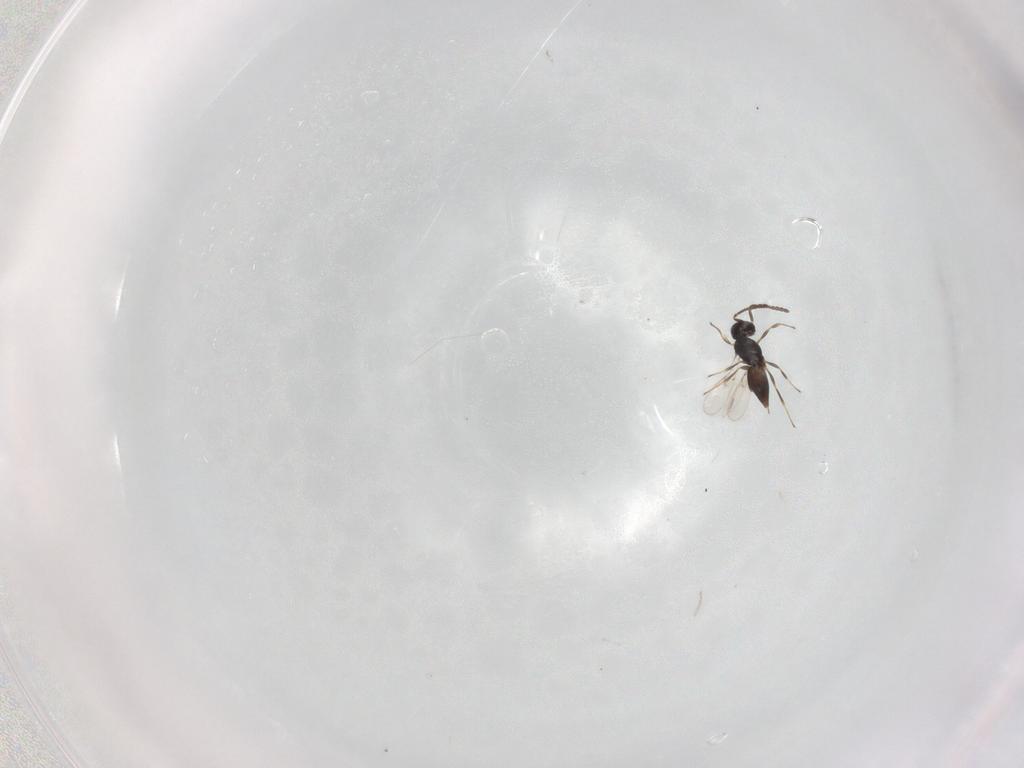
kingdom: Animalia
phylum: Arthropoda
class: Insecta
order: Hymenoptera
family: Scelionidae
